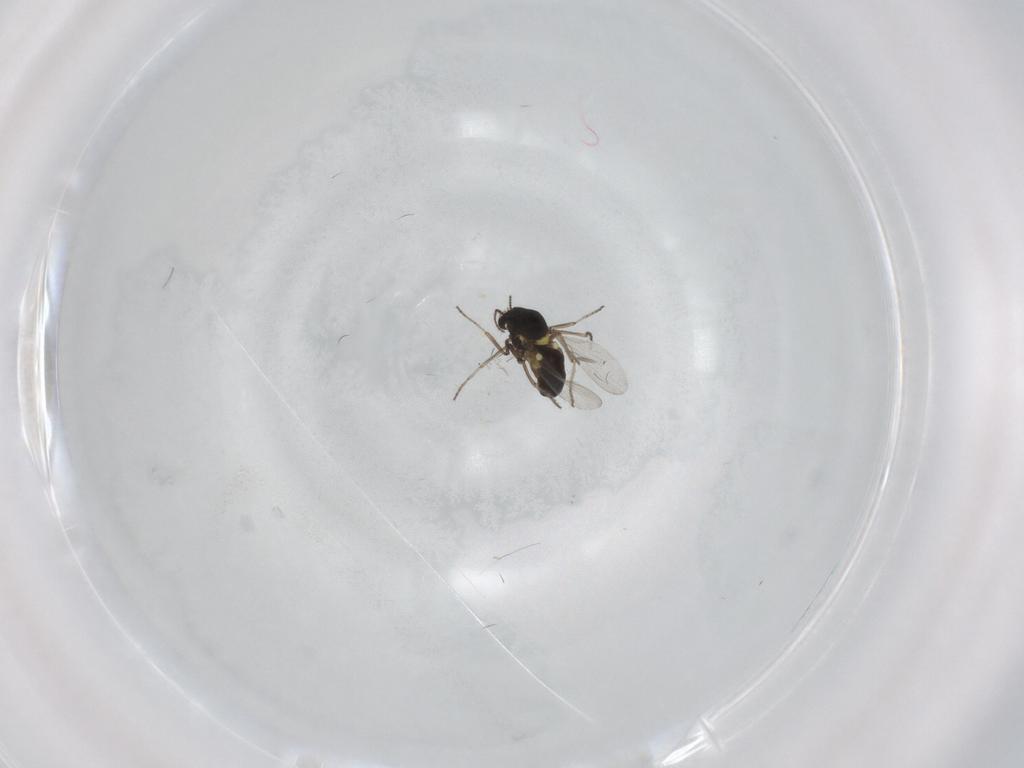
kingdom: Animalia
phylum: Arthropoda
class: Insecta
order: Diptera
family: Ceratopogonidae
